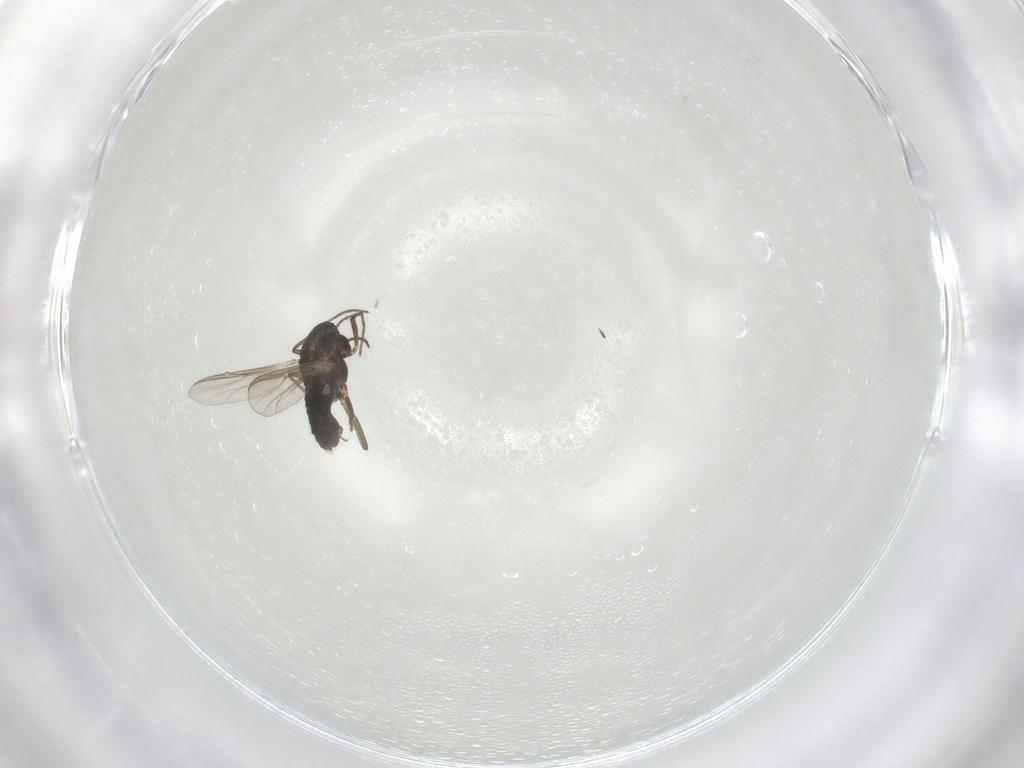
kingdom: Animalia
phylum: Arthropoda
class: Insecta
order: Diptera
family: Chironomidae
